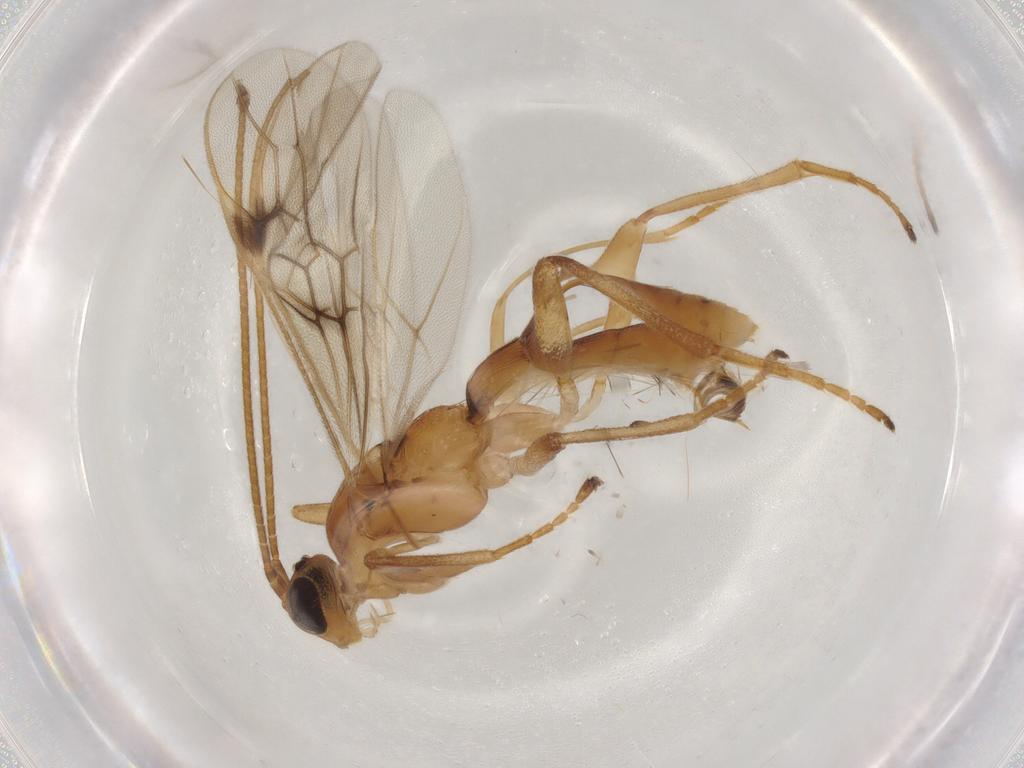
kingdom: Animalia
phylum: Arthropoda
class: Insecta
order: Hymenoptera
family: Braconidae
